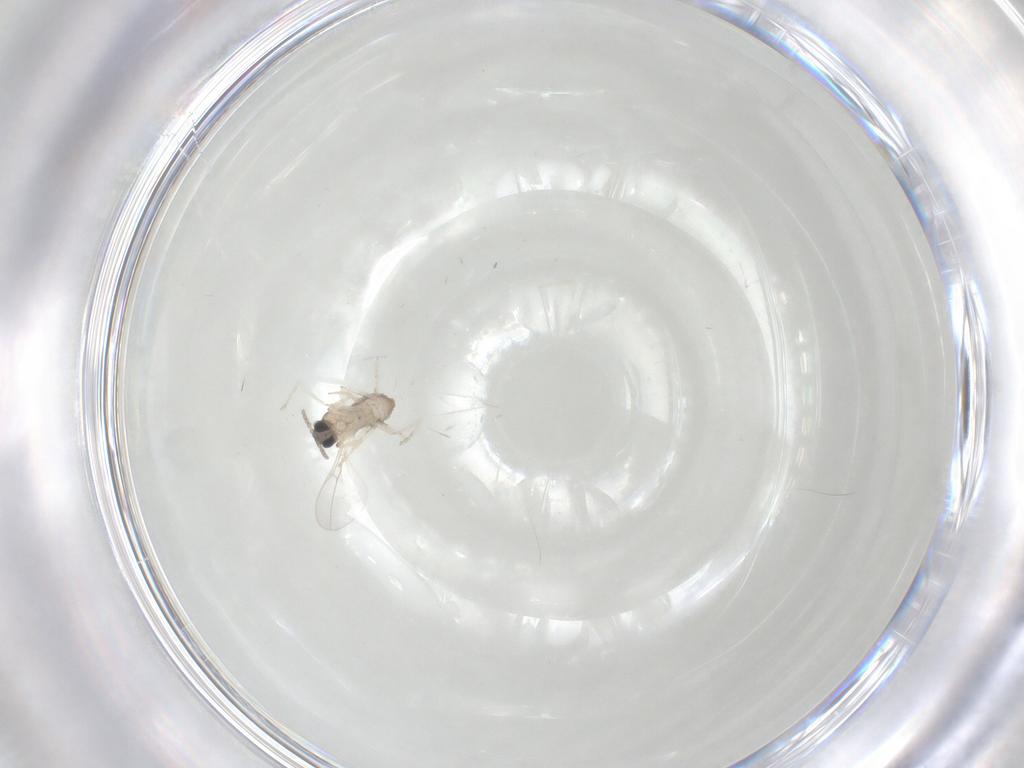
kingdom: Animalia
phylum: Arthropoda
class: Insecta
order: Diptera
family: Cecidomyiidae
